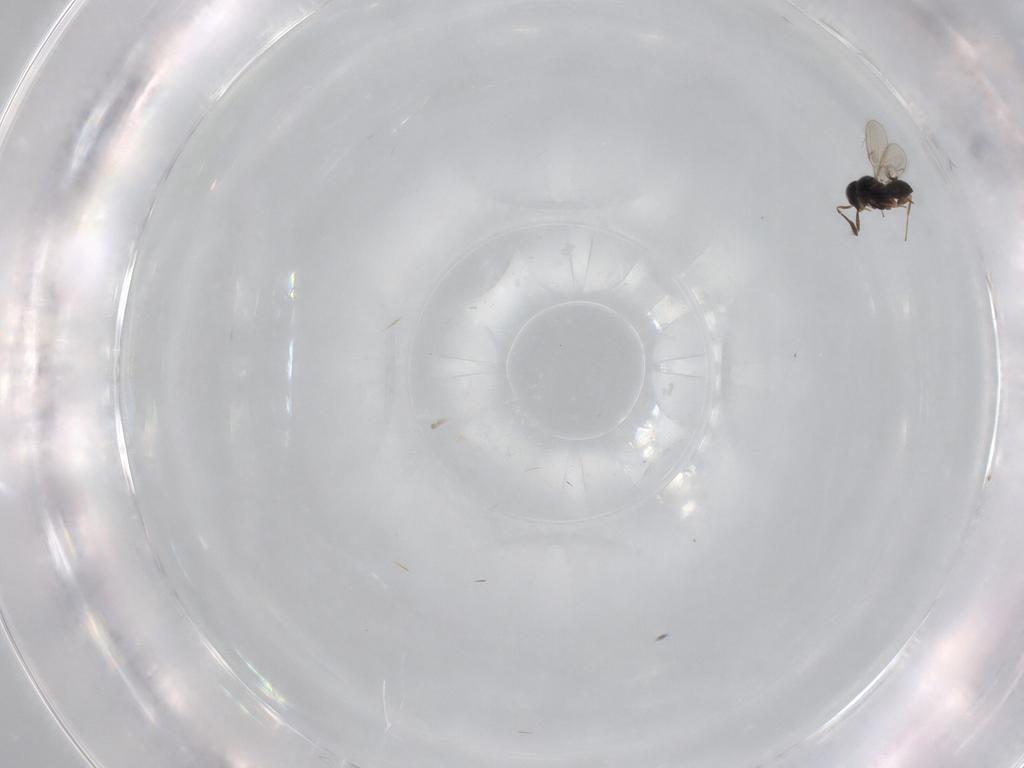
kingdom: Animalia
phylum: Arthropoda
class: Insecta
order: Hymenoptera
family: Scelionidae
